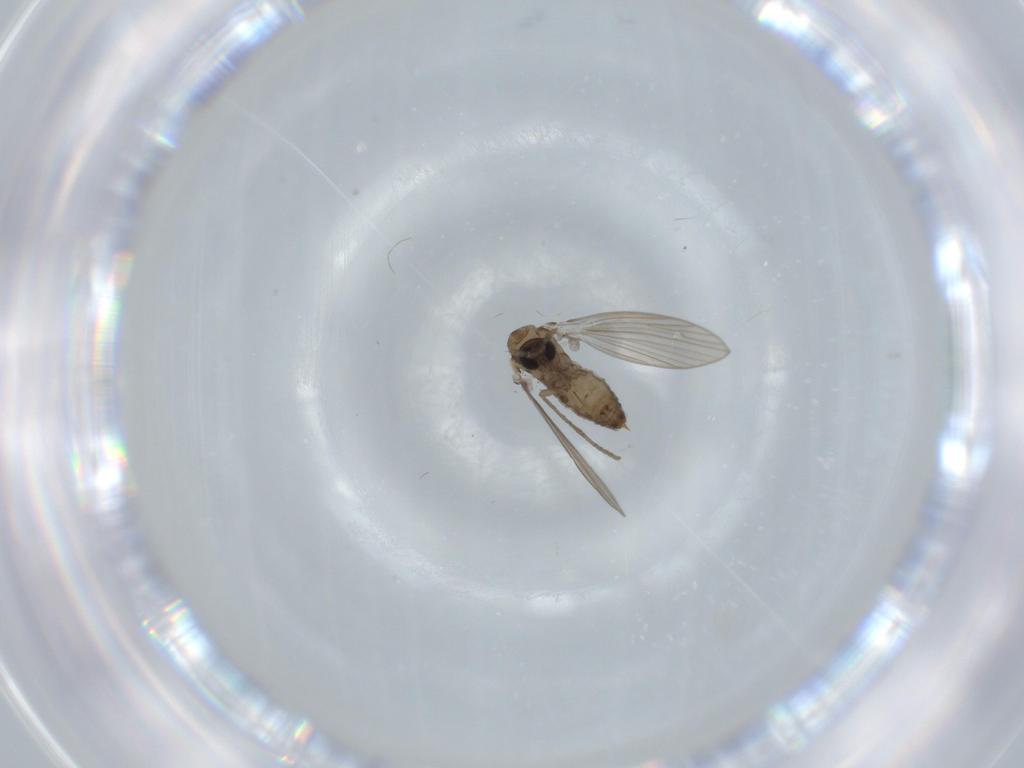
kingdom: Animalia
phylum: Arthropoda
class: Insecta
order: Diptera
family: Psychodidae
